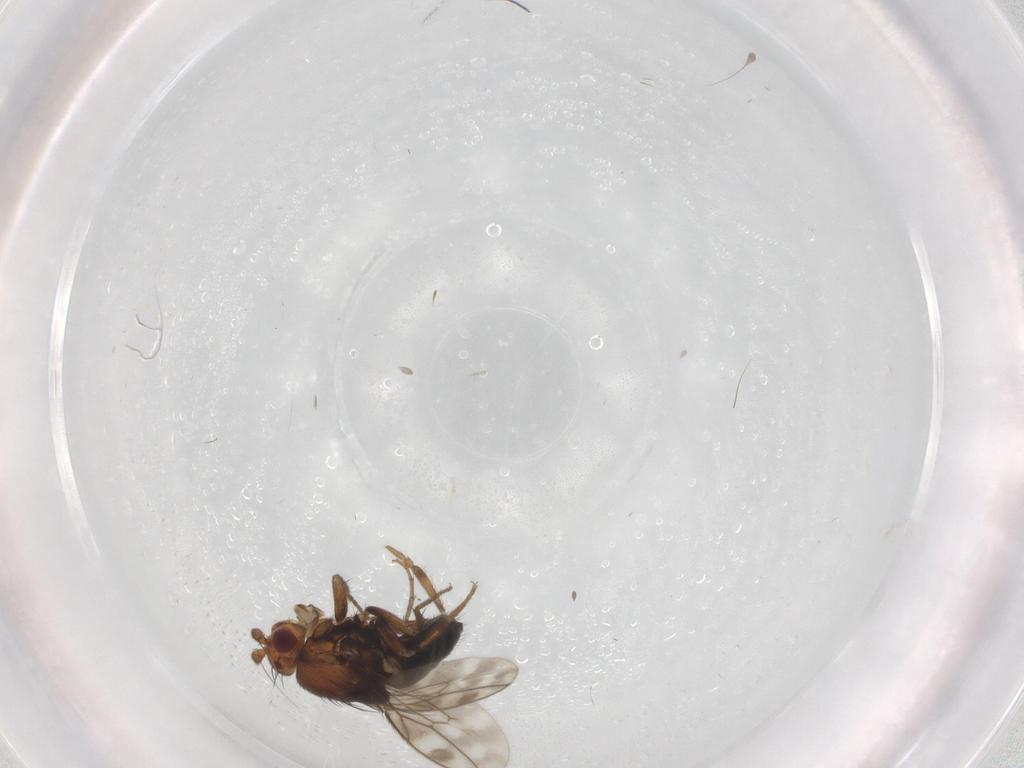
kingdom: Animalia
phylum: Arthropoda
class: Insecta
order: Diptera
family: Sphaeroceridae
